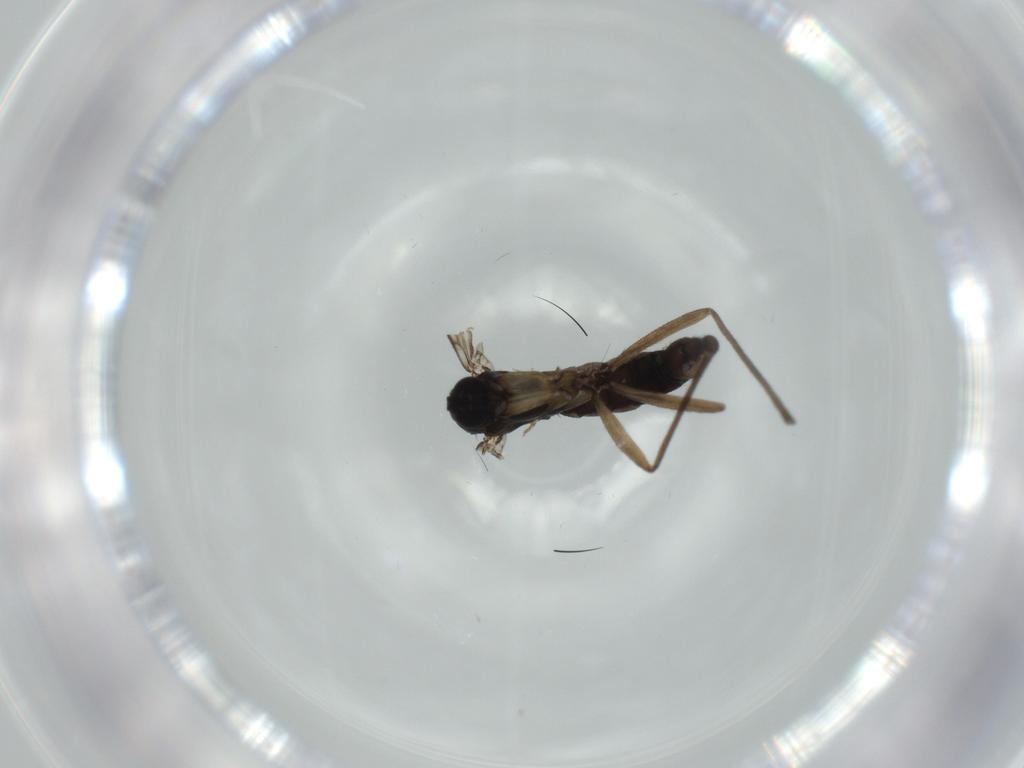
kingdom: Animalia
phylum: Arthropoda
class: Insecta
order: Diptera
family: Sciaridae
